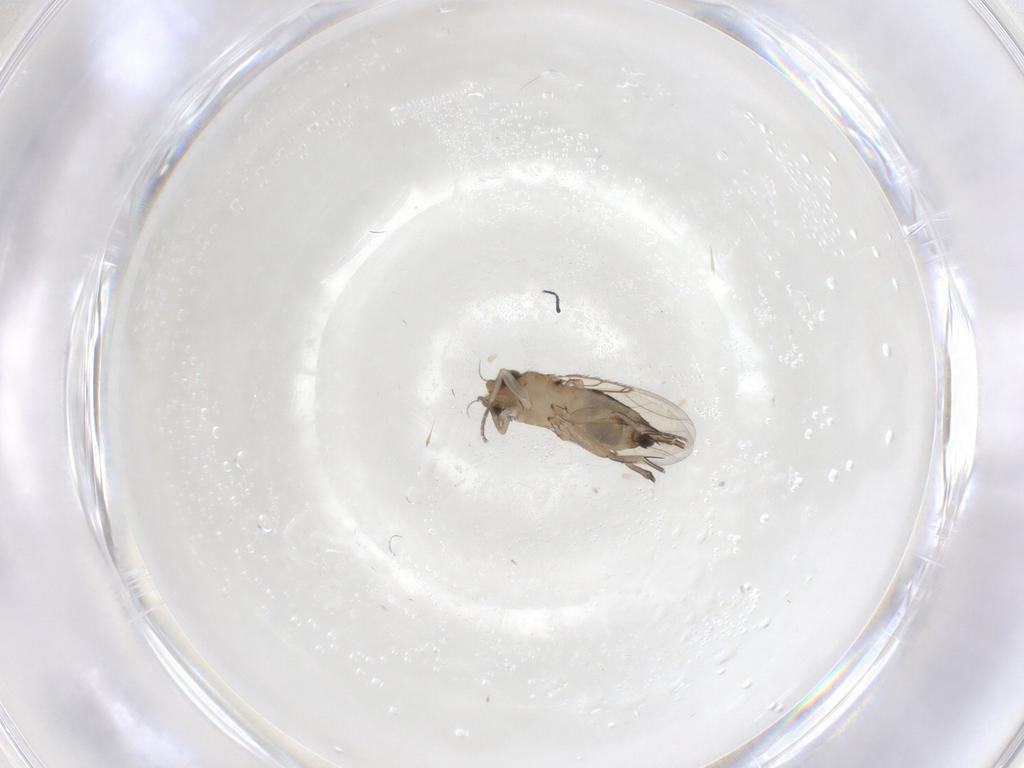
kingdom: Animalia
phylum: Arthropoda
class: Insecta
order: Diptera
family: Phoridae
